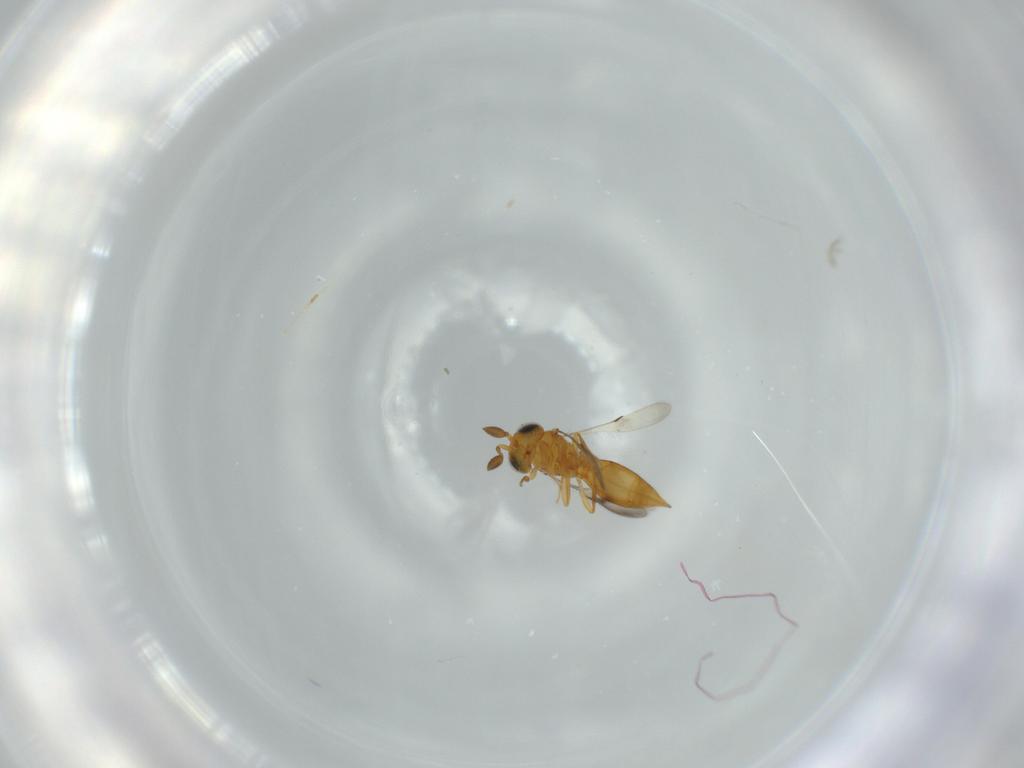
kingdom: Animalia
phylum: Arthropoda
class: Insecta
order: Hymenoptera
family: Scelionidae
